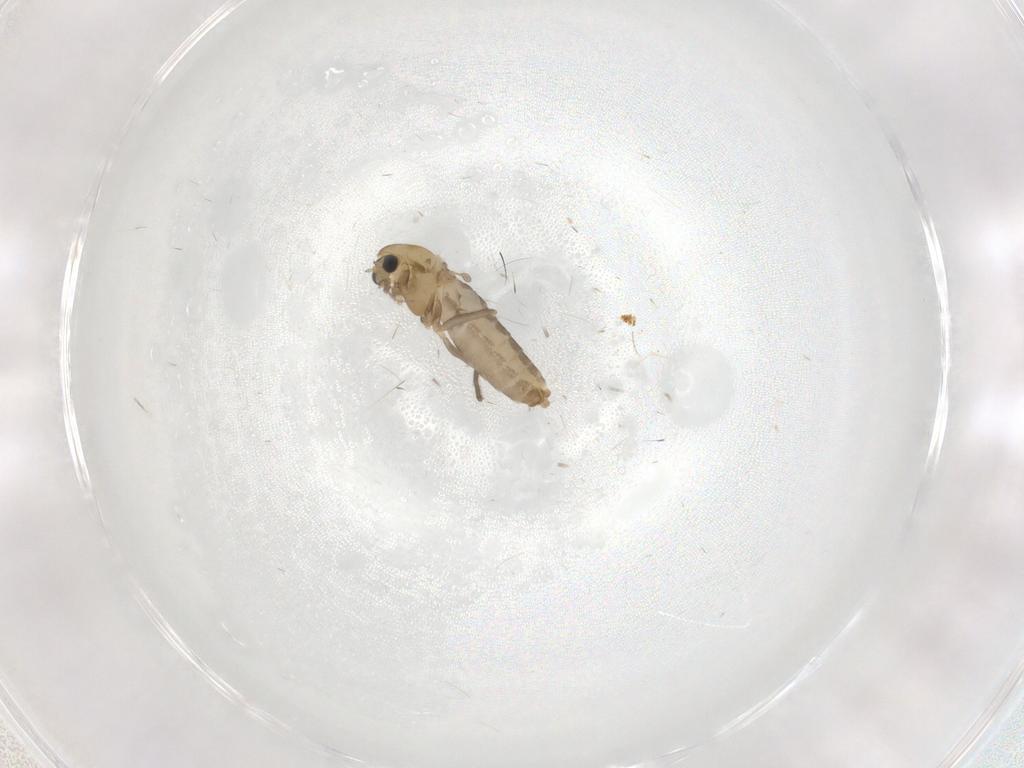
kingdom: Animalia
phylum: Arthropoda
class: Insecta
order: Diptera
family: Chironomidae
